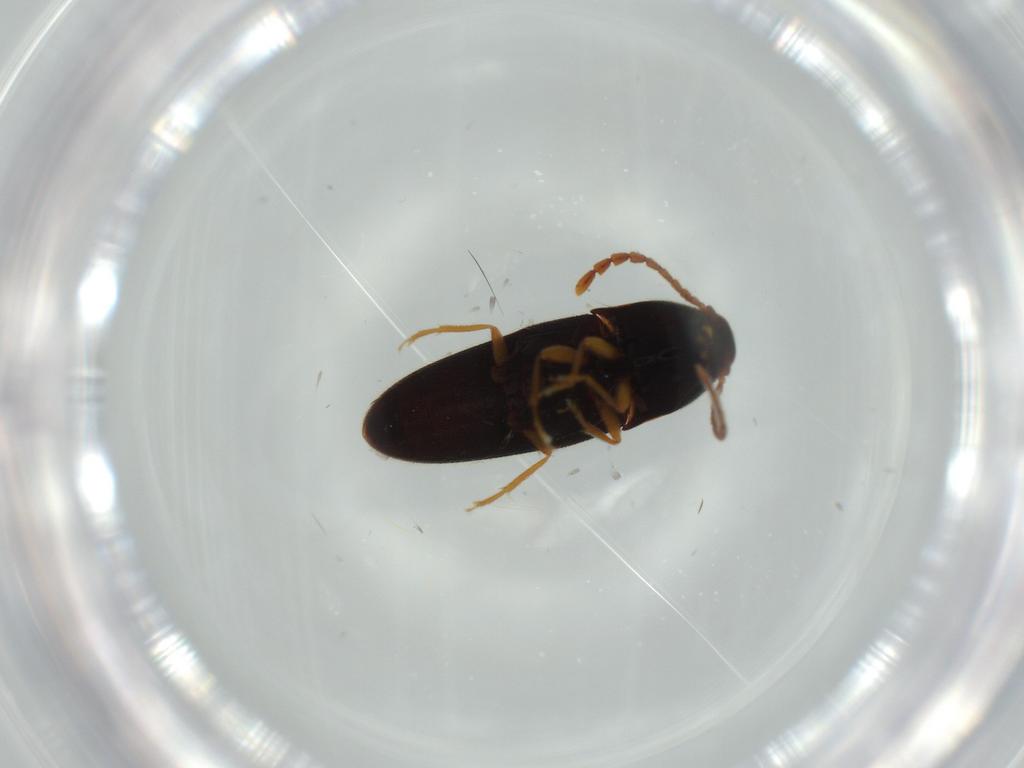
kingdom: Animalia
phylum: Arthropoda
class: Insecta
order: Coleoptera
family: Elateridae
